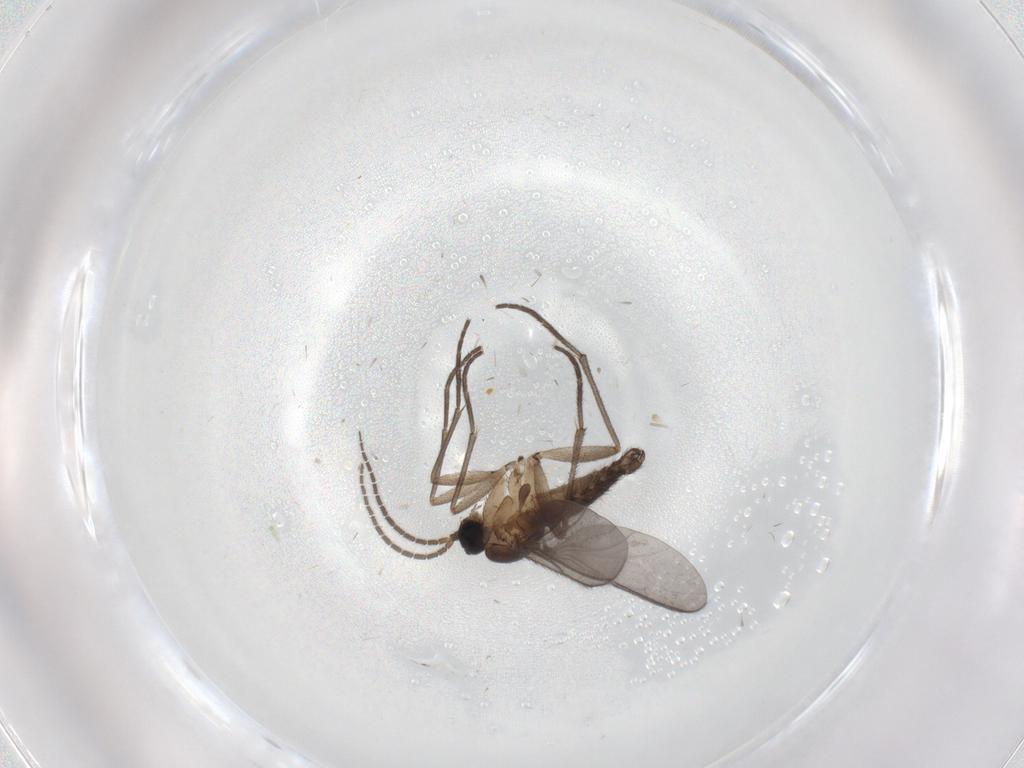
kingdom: Animalia
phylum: Arthropoda
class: Insecta
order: Diptera
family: Sciaridae
